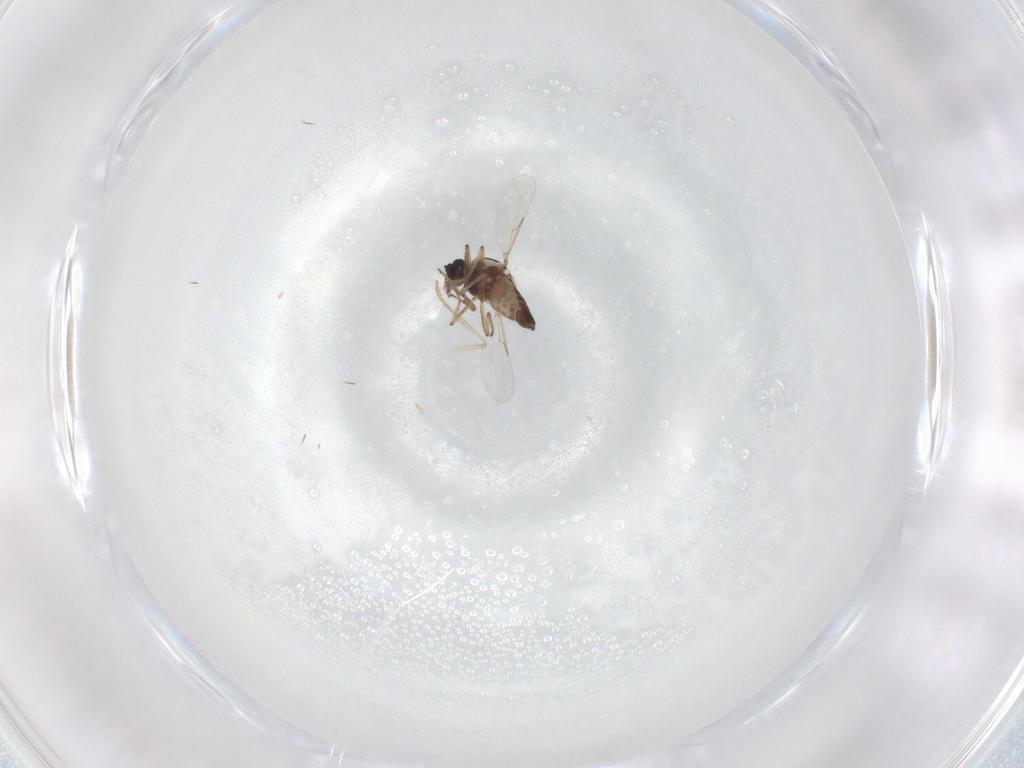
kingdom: Animalia
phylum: Arthropoda
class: Insecta
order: Diptera
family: Psychodidae
